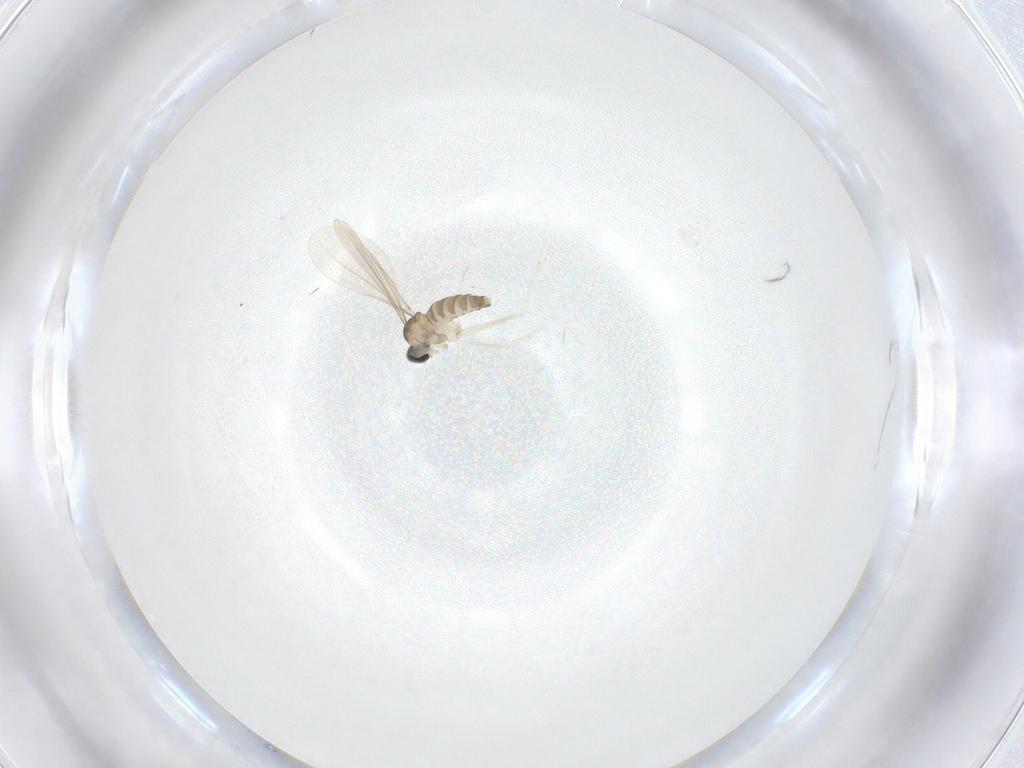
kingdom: Animalia
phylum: Arthropoda
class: Insecta
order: Diptera
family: Cecidomyiidae
